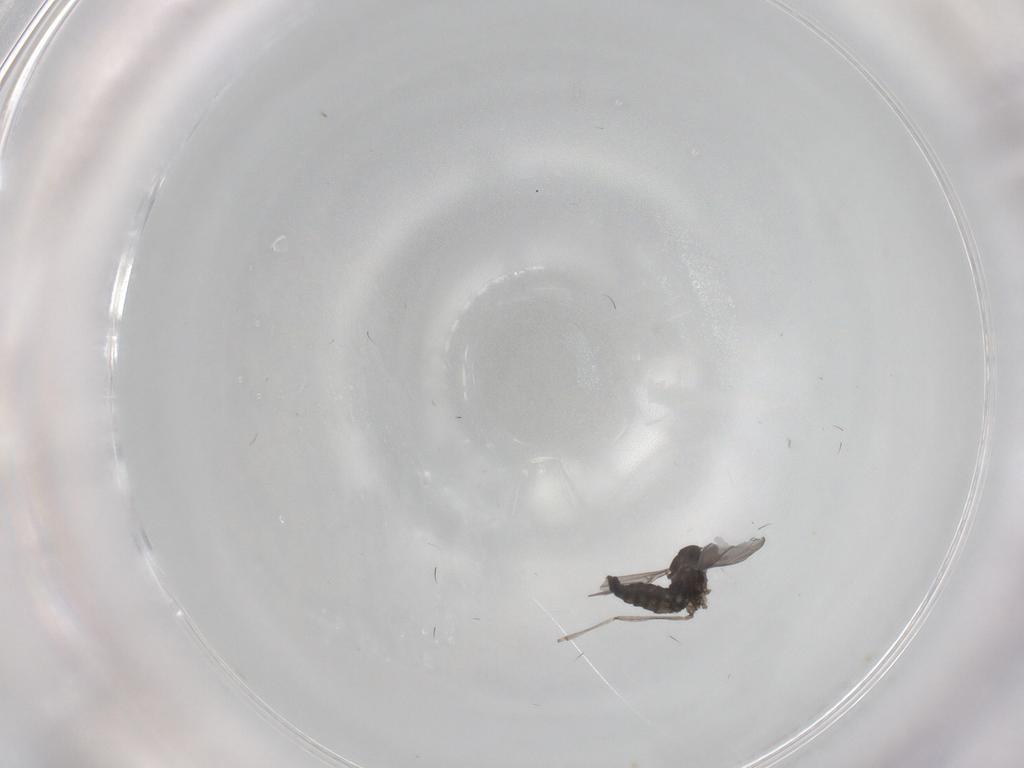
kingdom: Animalia
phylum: Arthropoda
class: Insecta
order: Diptera
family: Cecidomyiidae
